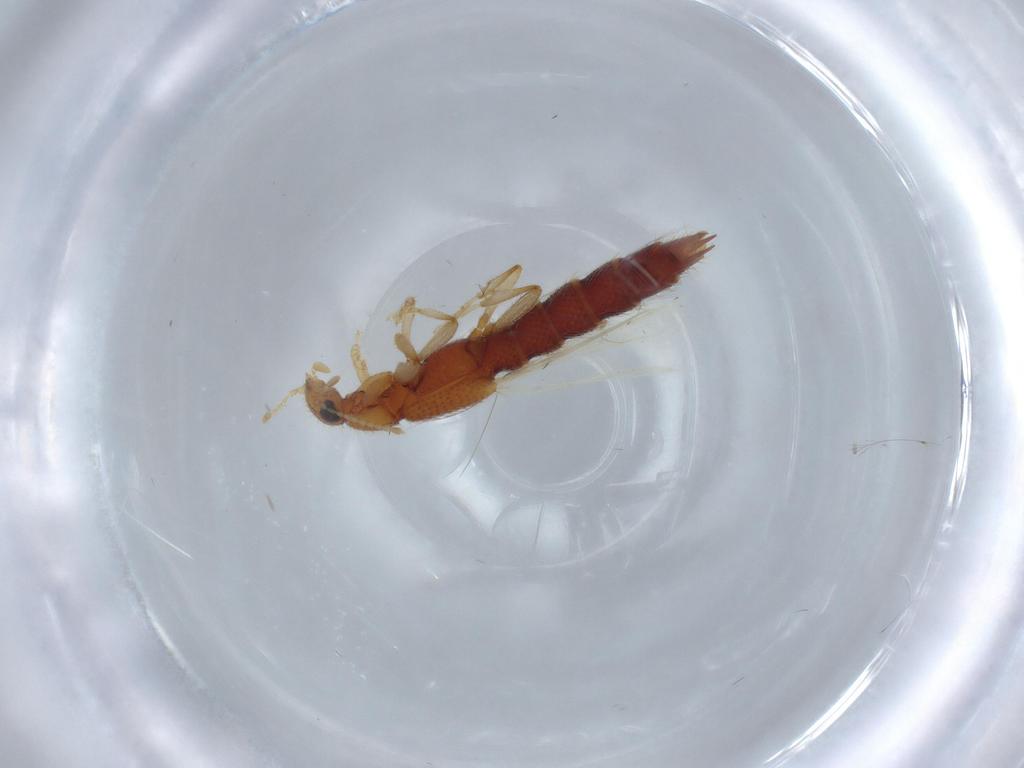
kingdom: Animalia
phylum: Arthropoda
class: Insecta
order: Coleoptera
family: Staphylinidae
